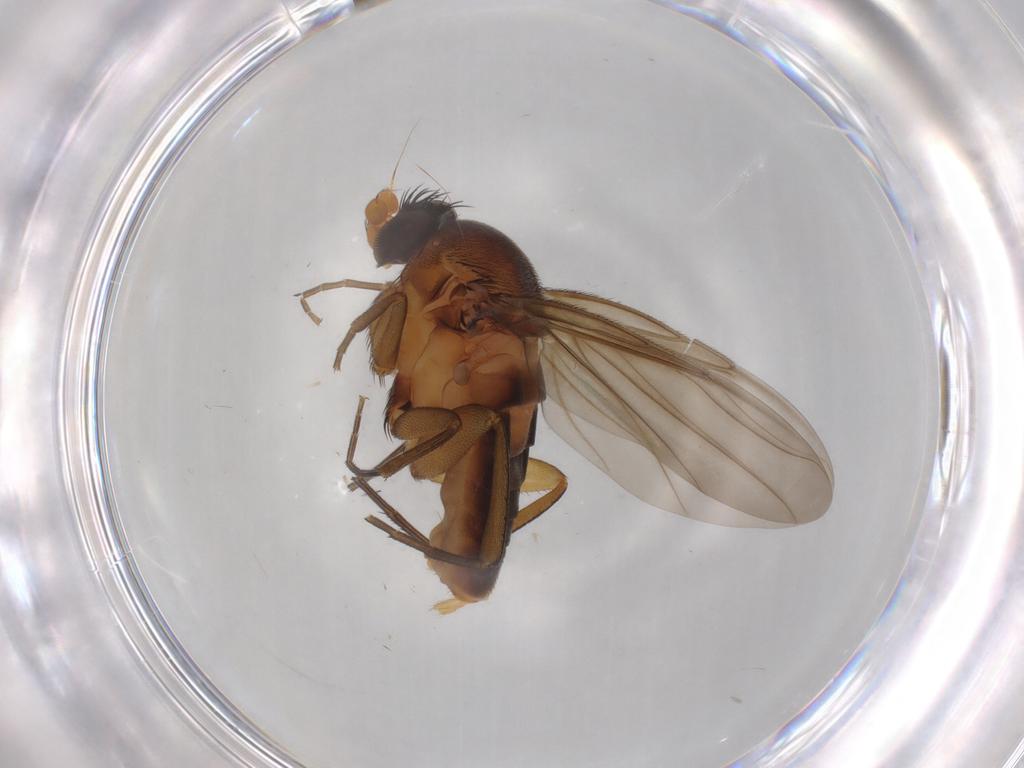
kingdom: Animalia
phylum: Arthropoda
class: Insecta
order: Diptera
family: Phoridae
